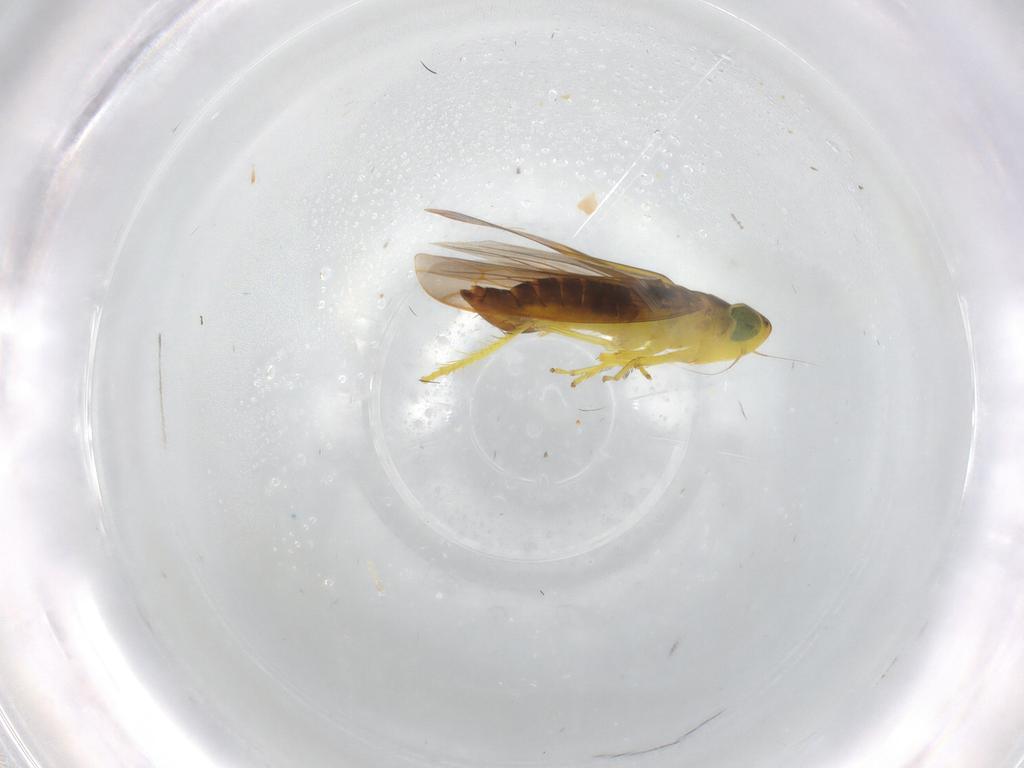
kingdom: Animalia
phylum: Arthropoda
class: Insecta
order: Hemiptera
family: Cicadellidae
